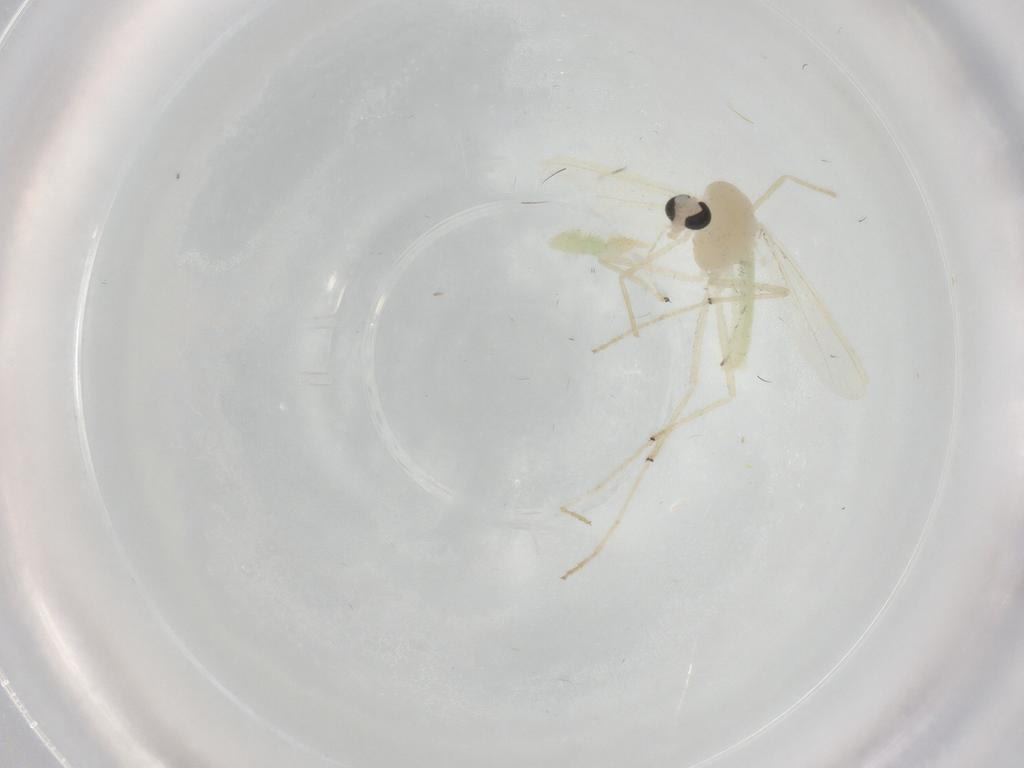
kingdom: Animalia
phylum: Arthropoda
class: Insecta
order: Diptera
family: Chironomidae
